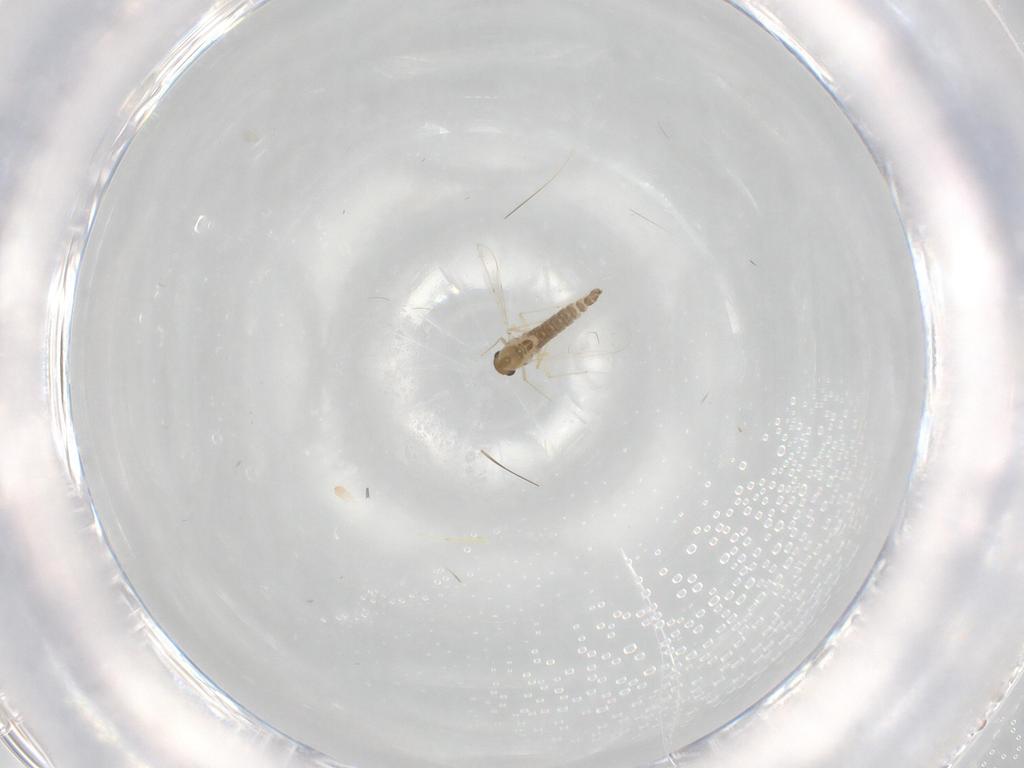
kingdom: Animalia
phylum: Arthropoda
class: Insecta
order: Diptera
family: Chironomidae
